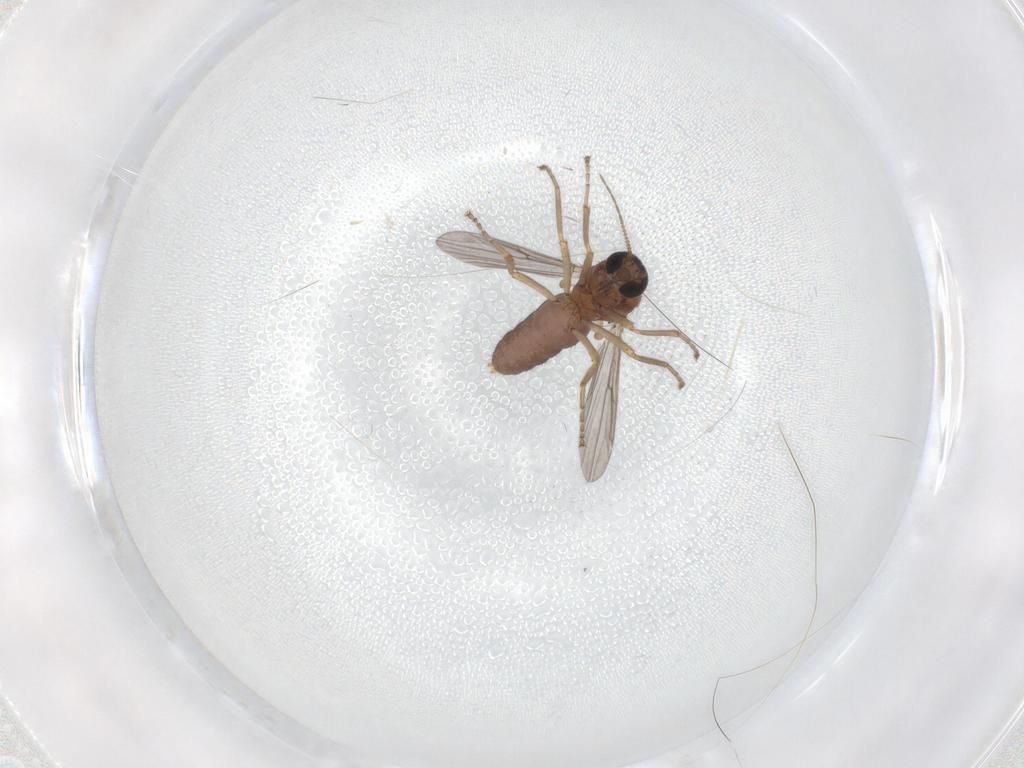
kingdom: Animalia
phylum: Arthropoda
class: Insecta
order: Diptera
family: Ceratopogonidae
